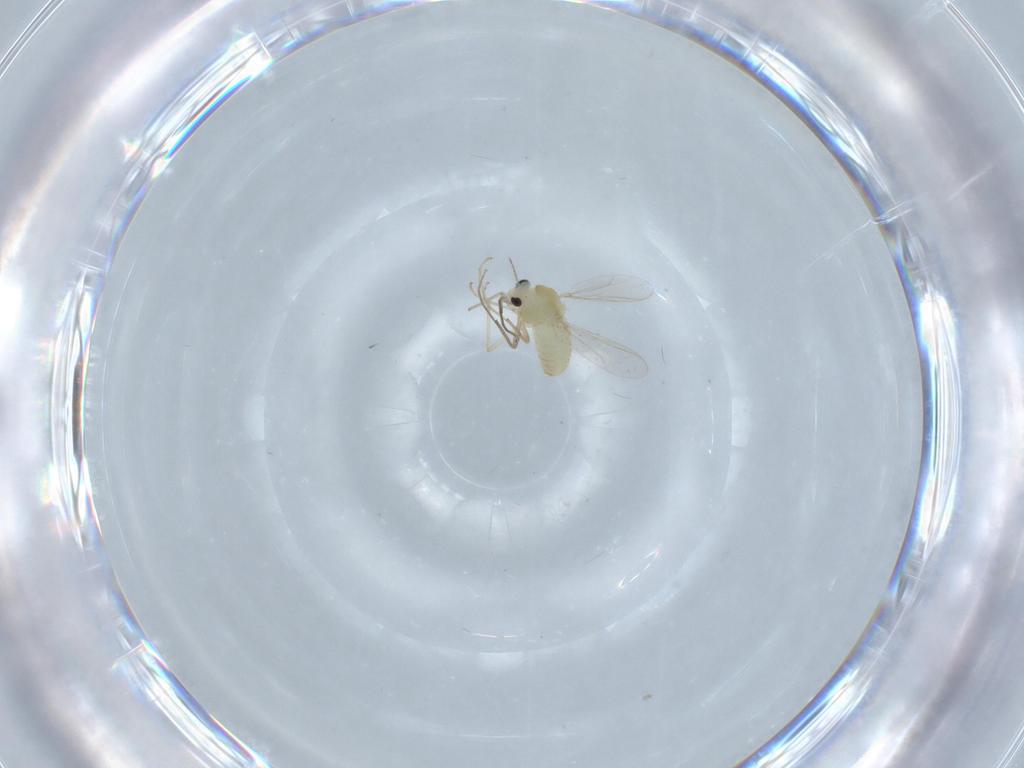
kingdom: Animalia
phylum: Arthropoda
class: Insecta
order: Diptera
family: Chironomidae
